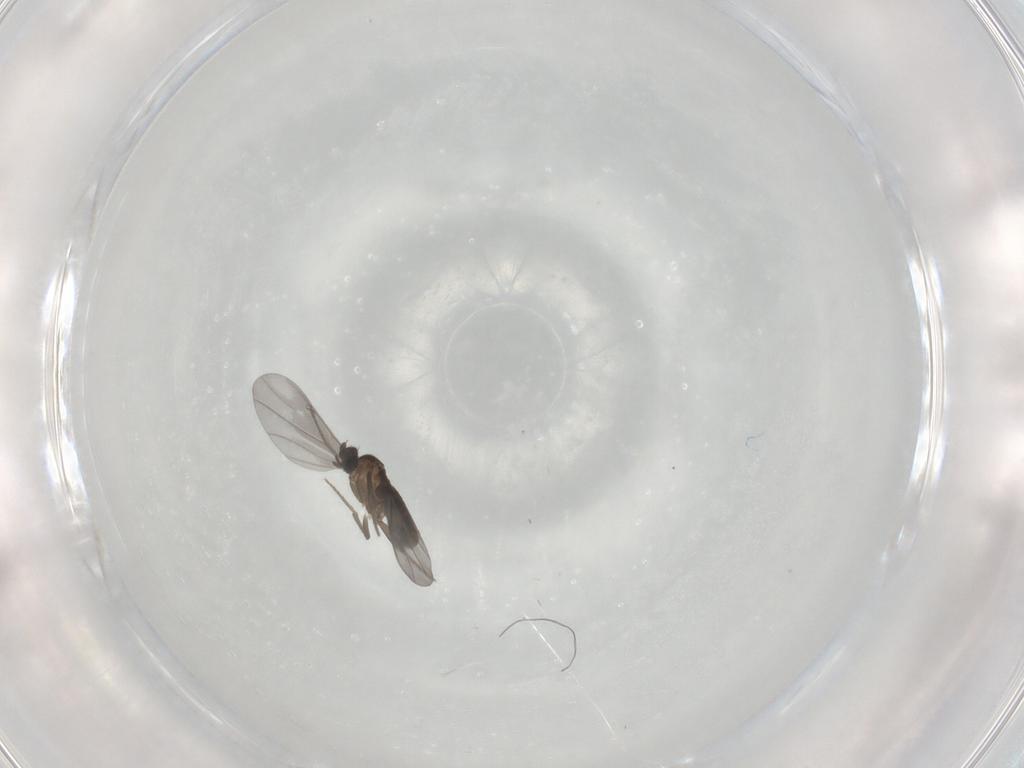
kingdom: Animalia
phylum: Arthropoda
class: Insecta
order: Diptera
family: Phoridae
